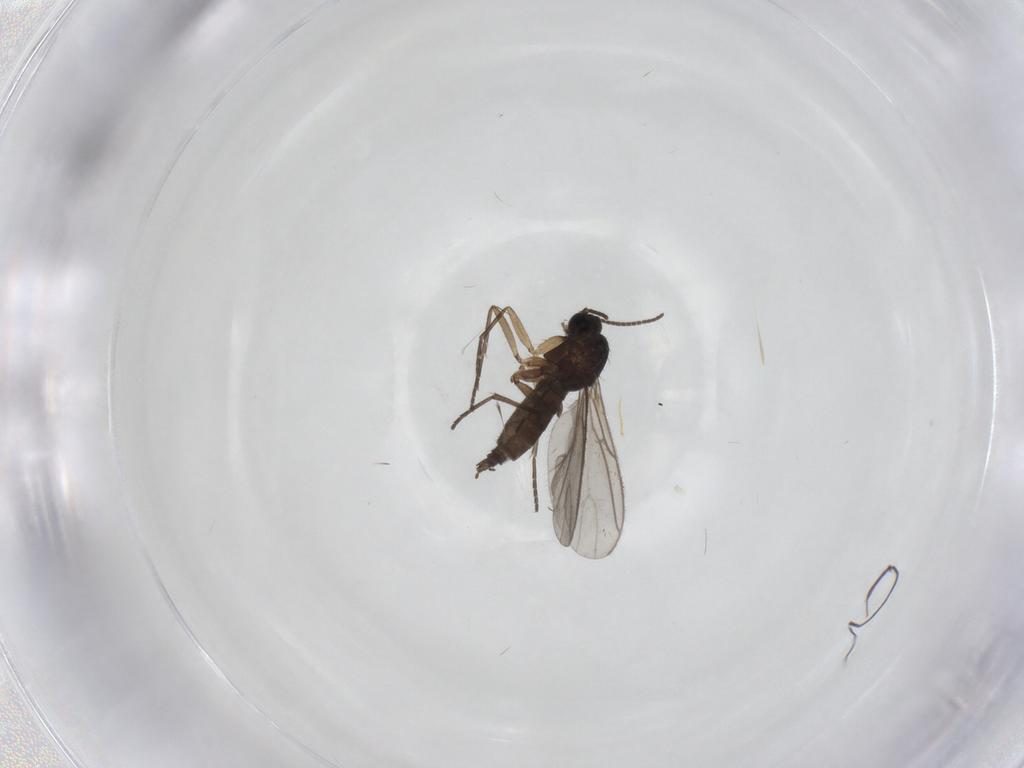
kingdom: Animalia
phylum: Arthropoda
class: Insecta
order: Diptera
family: Sciaridae
